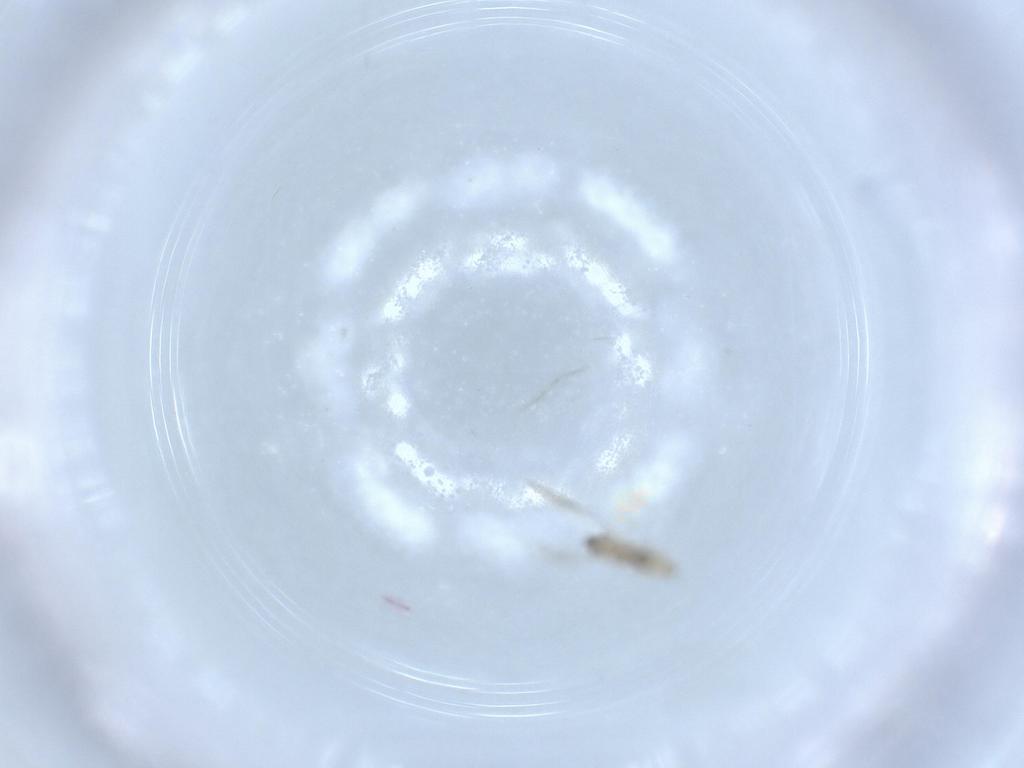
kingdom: Animalia
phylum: Arthropoda
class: Insecta
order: Diptera
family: Cecidomyiidae
